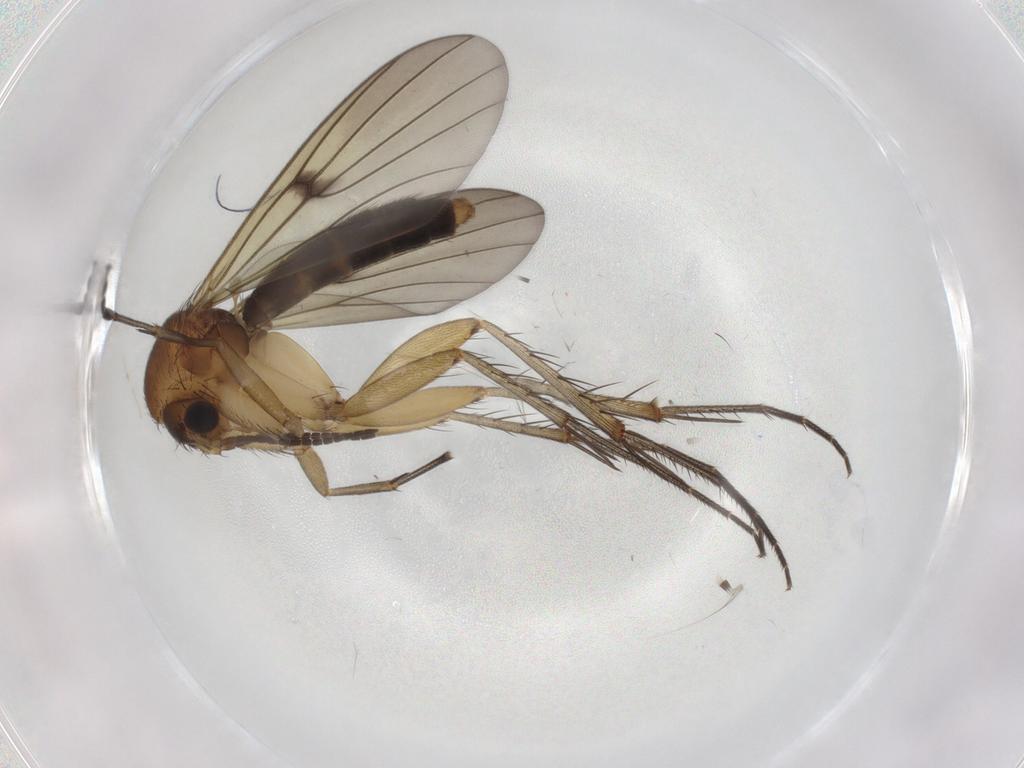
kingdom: Animalia
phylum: Arthropoda
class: Insecta
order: Diptera
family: Mycetophilidae
